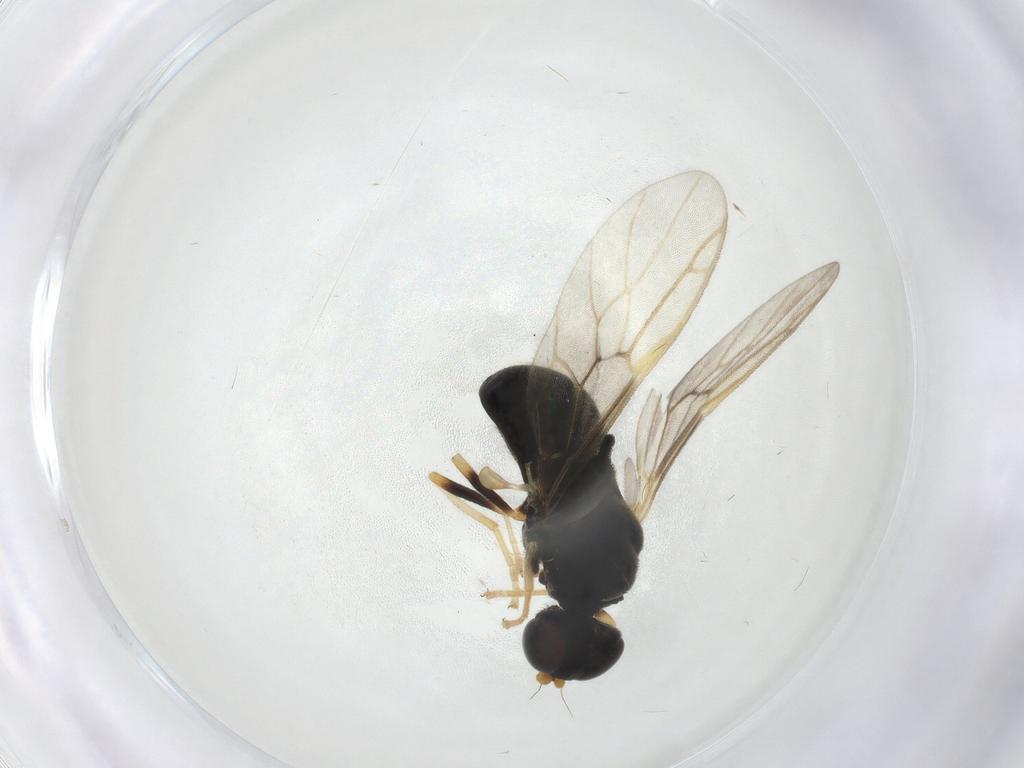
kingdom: Animalia
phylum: Arthropoda
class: Insecta
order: Diptera
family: Stratiomyidae
